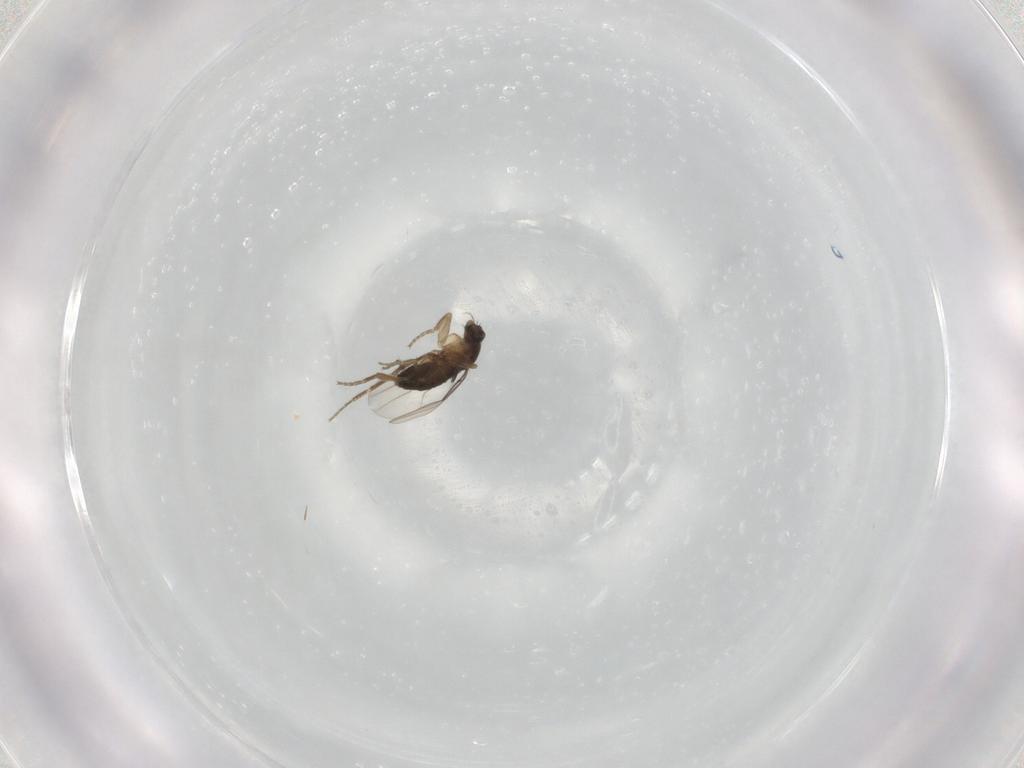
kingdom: Animalia
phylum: Arthropoda
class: Insecta
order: Diptera
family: Phoridae
